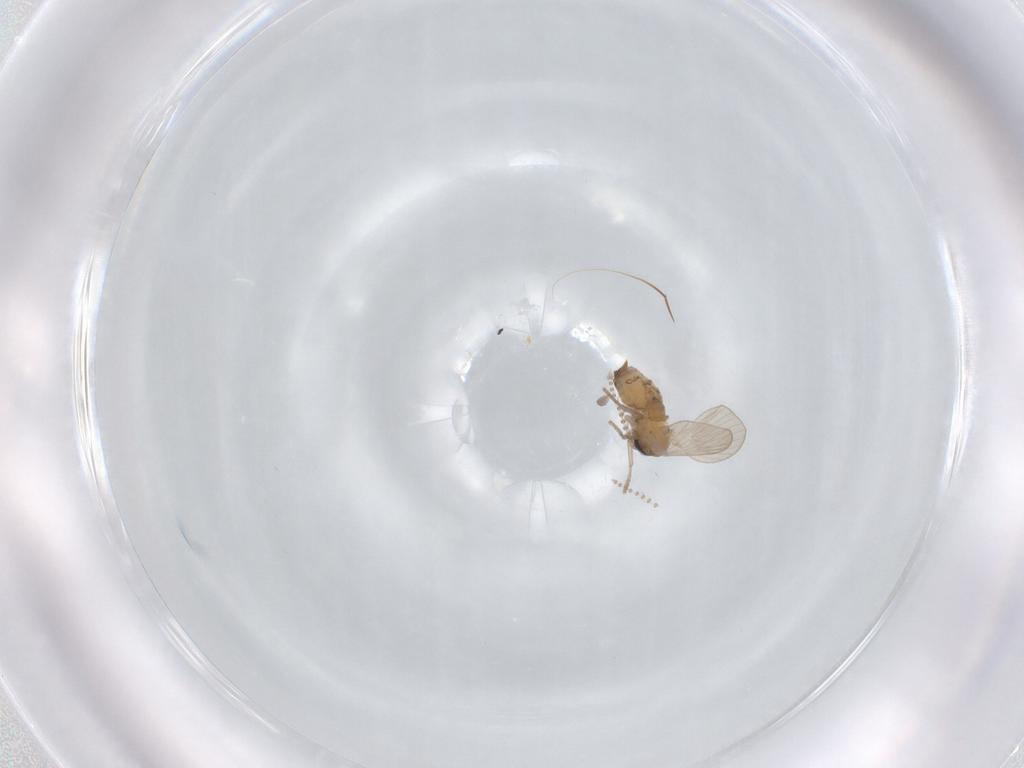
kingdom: Animalia
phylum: Arthropoda
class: Insecta
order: Diptera
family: Psychodidae
